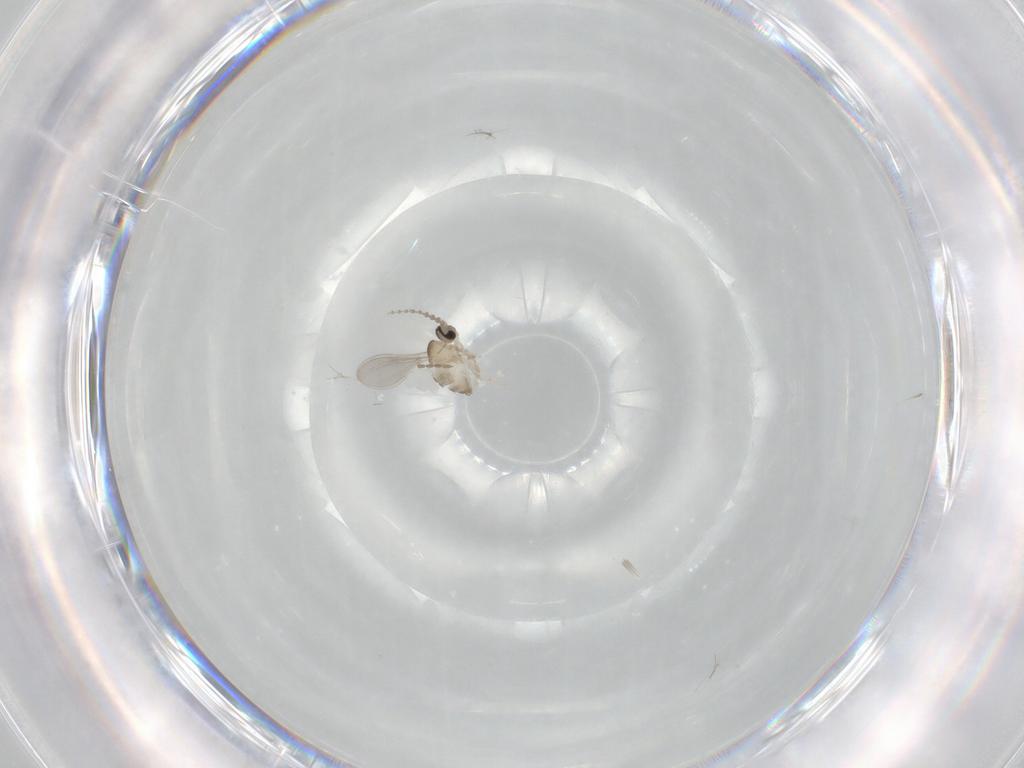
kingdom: Animalia
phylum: Arthropoda
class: Insecta
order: Diptera
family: Cecidomyiidae
